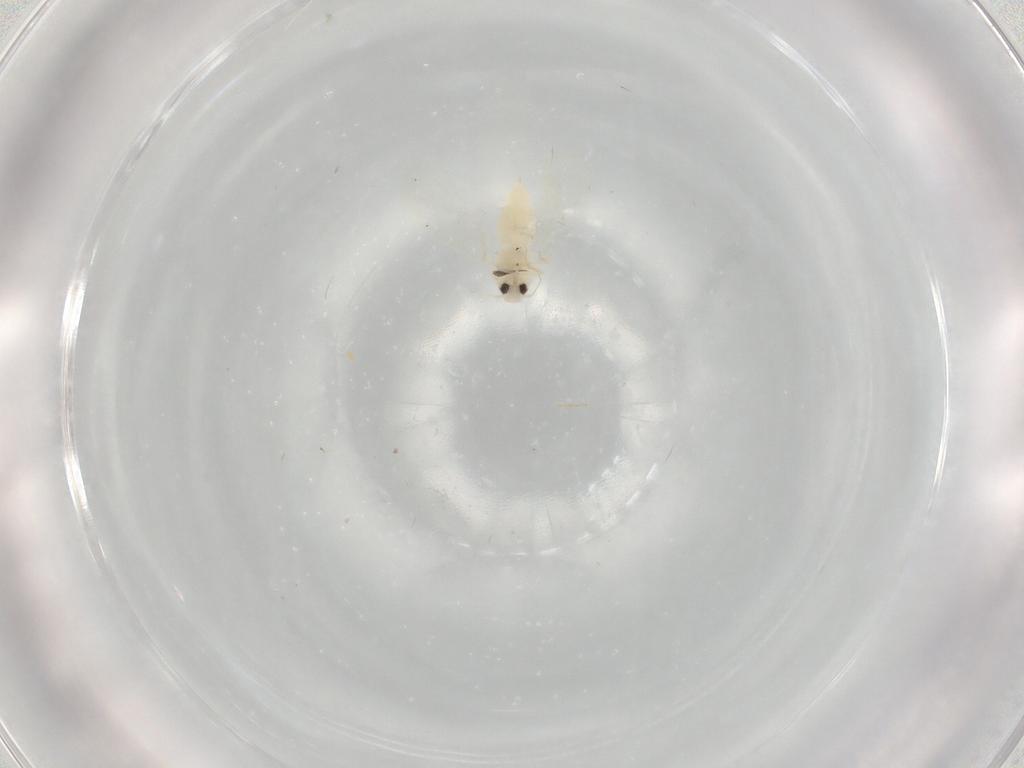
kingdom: Animalia
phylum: Arthropoda
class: Insecta
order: Hemiptera
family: Aleyrodidae
